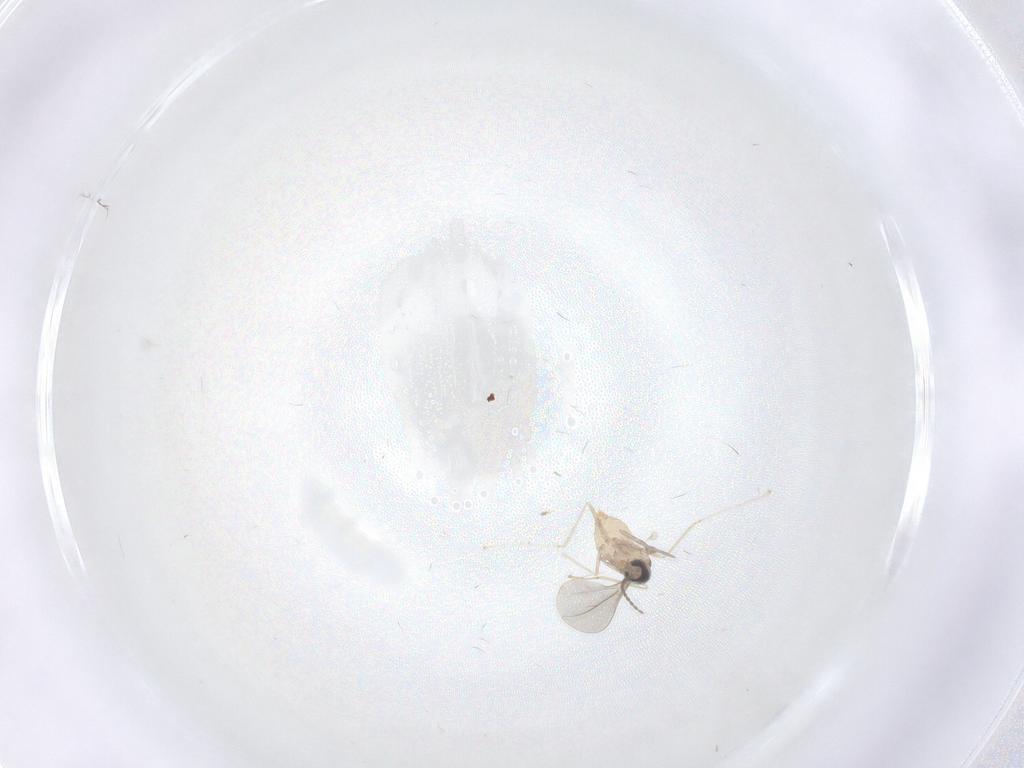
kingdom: Animalia
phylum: Arthropoda
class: Insecta
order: Diptera
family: Cecidomyiidae
